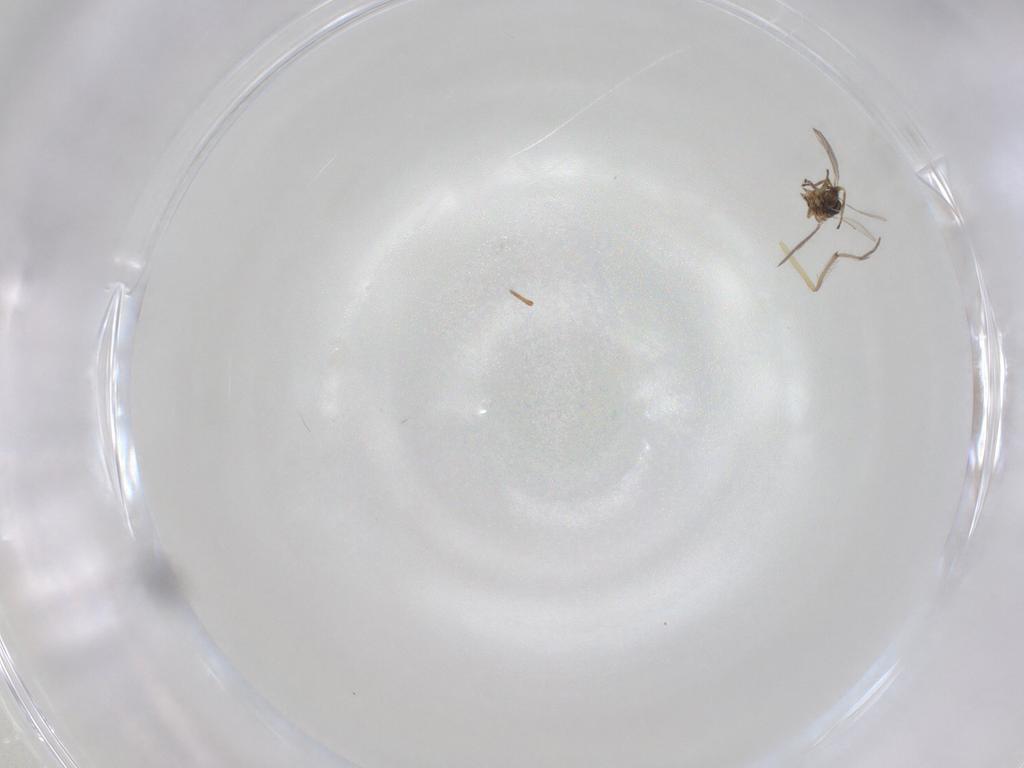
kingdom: Animalia
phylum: Arthropoda
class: Insecta
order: Hymenoptera
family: Eulophidae
